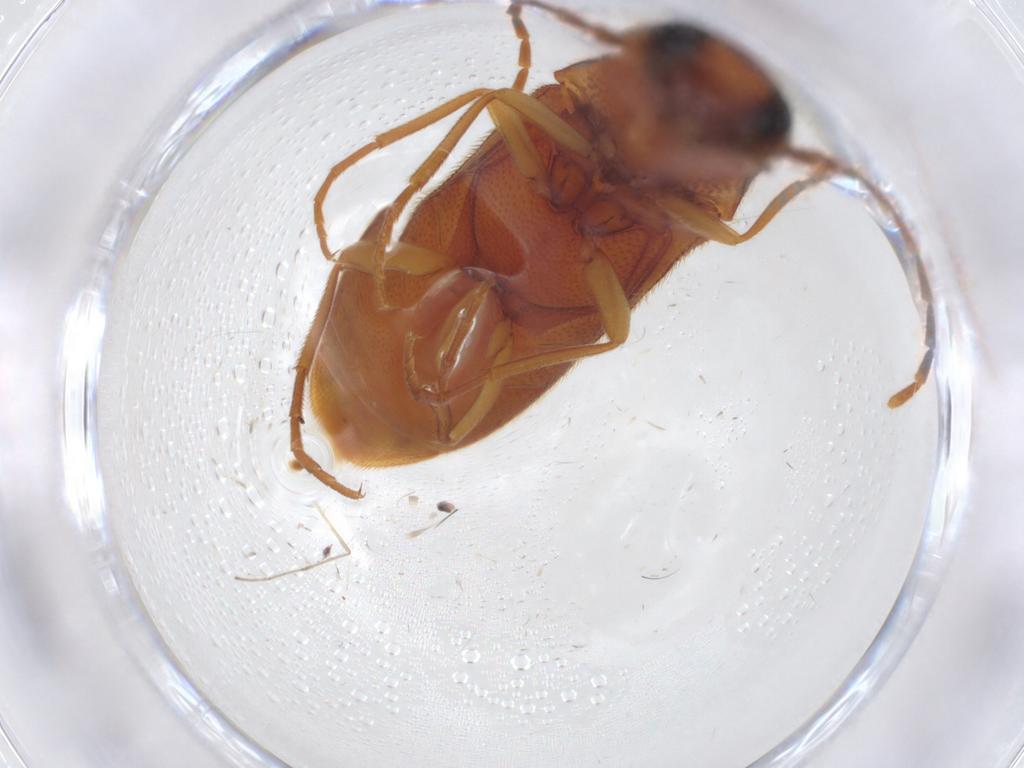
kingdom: Animalia
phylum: Arthropoda
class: Insecta
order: Coleoptera
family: Elateridae
